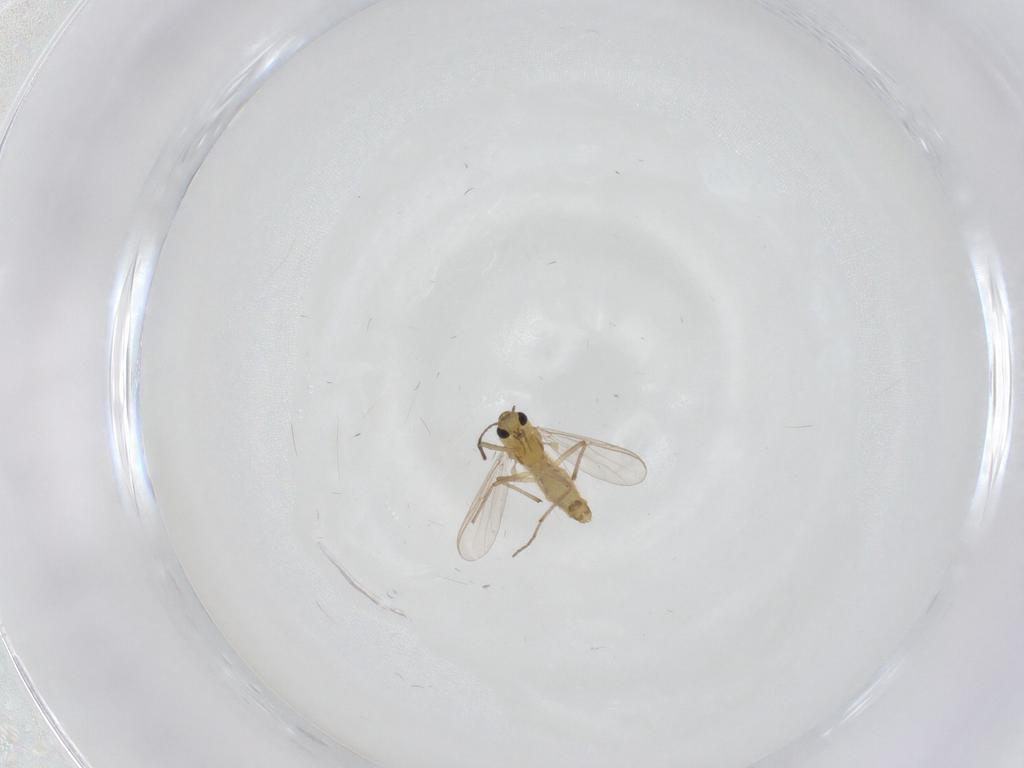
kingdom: Animalia
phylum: Arthropoda
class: Insecta
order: Diptera
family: Chironomidae
